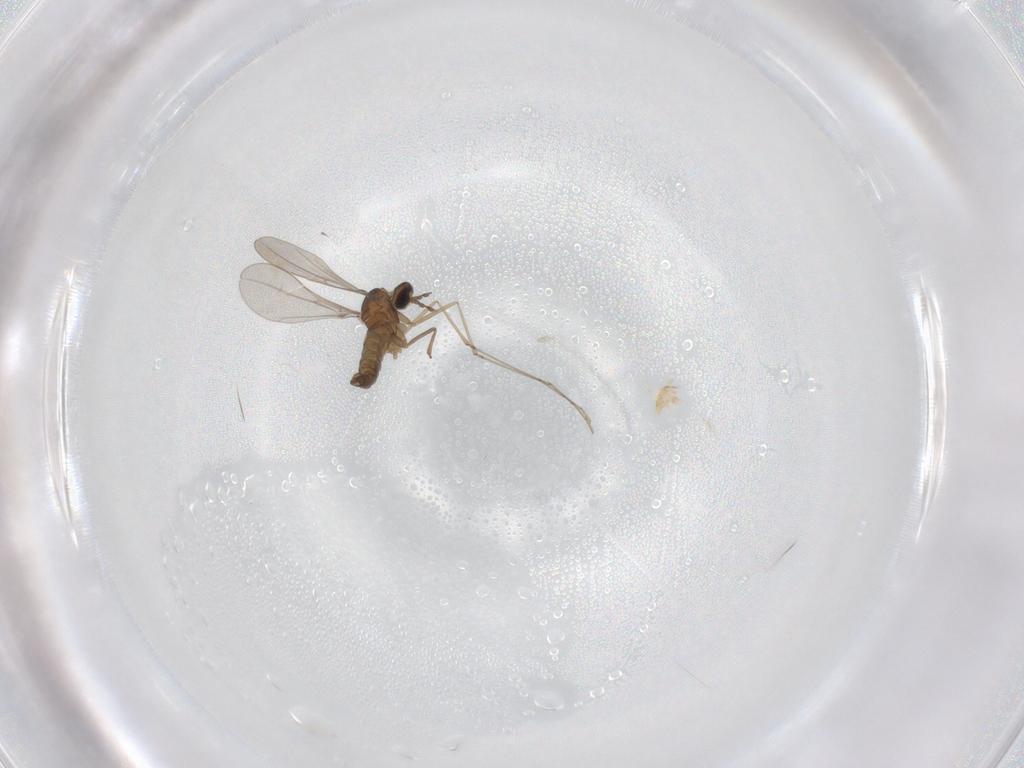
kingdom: Animalia
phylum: Arthropoda
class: Insecta
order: Diptera
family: Cecidomyiidae
